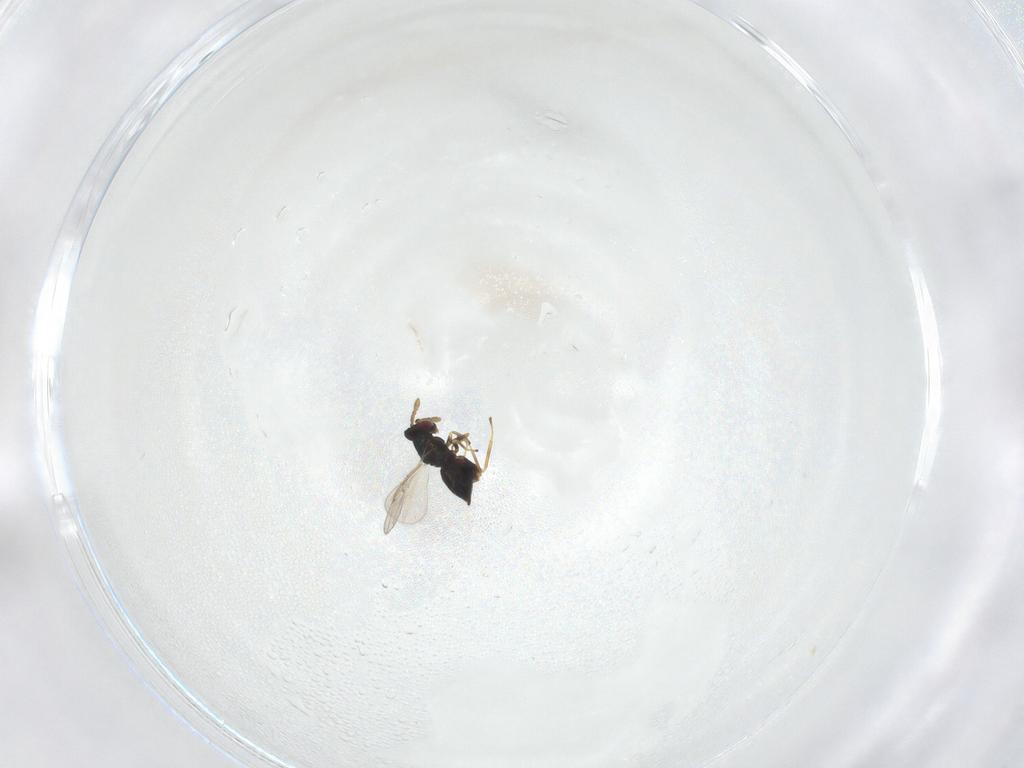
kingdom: Animalia
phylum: Arthropoda
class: Insecta
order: Hymenoptera
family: Eulophidae
